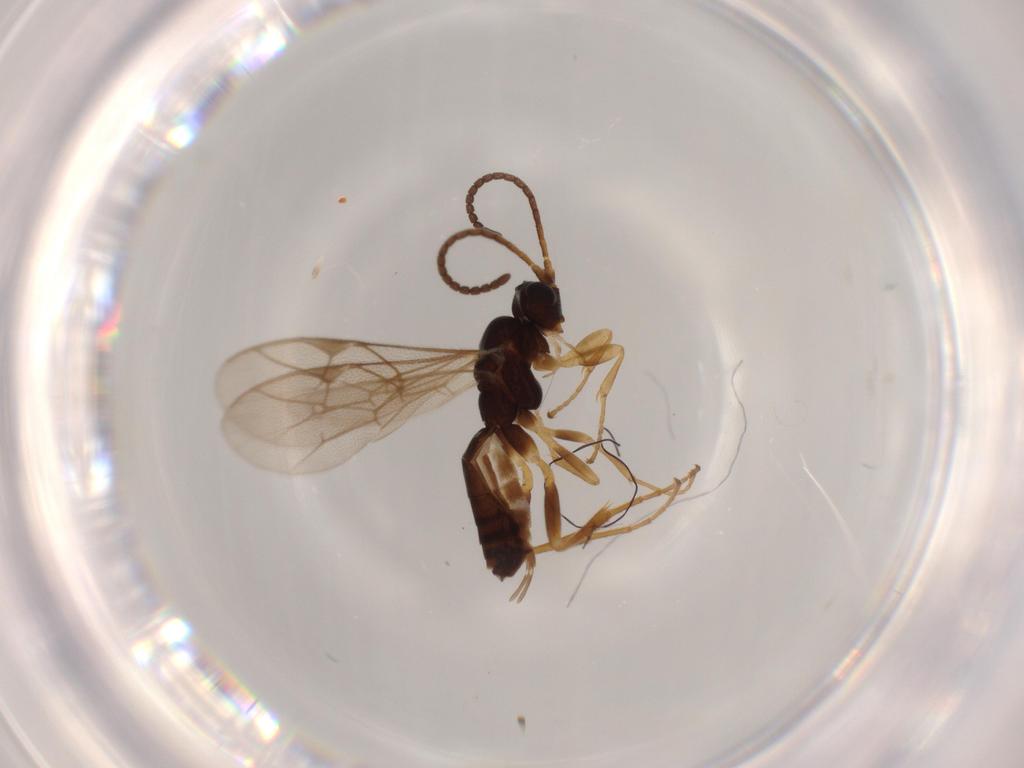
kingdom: Animalia
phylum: Arthropoda
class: Insecta
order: Hymenoptera
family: Ichneumonidae
